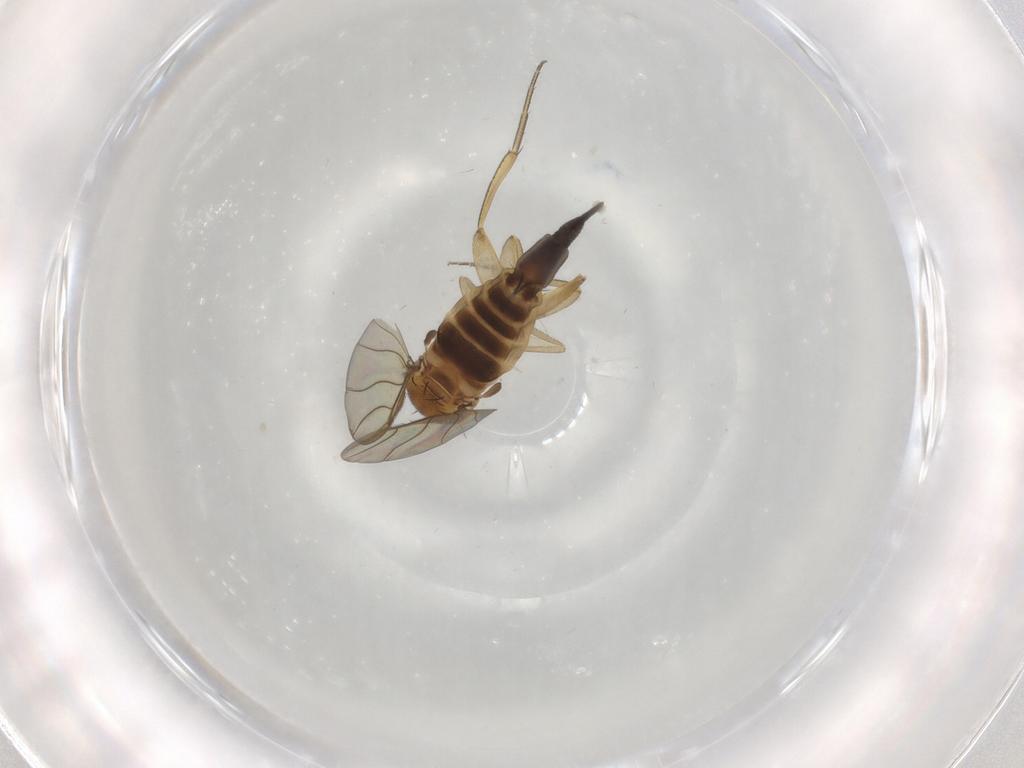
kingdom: Animalia
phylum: Arthropoda
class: Insecta
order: Diptera
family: Phoridae
